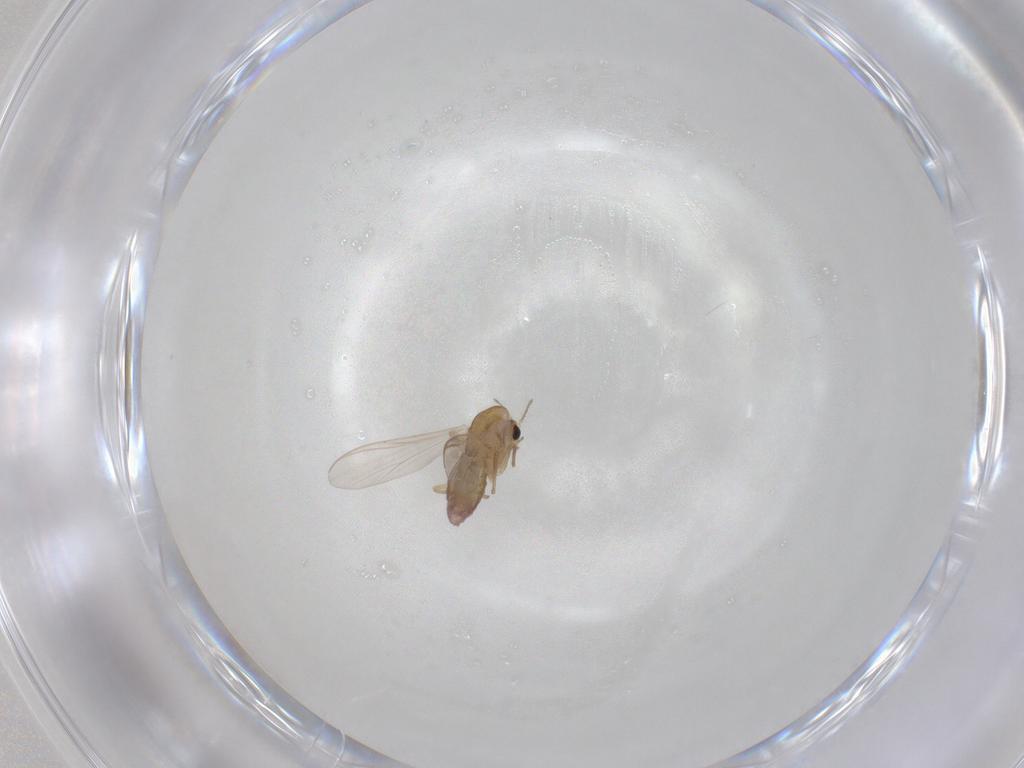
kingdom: Animalia
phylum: Arthropoda
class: Insecta
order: Diptera
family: Chironomidae
